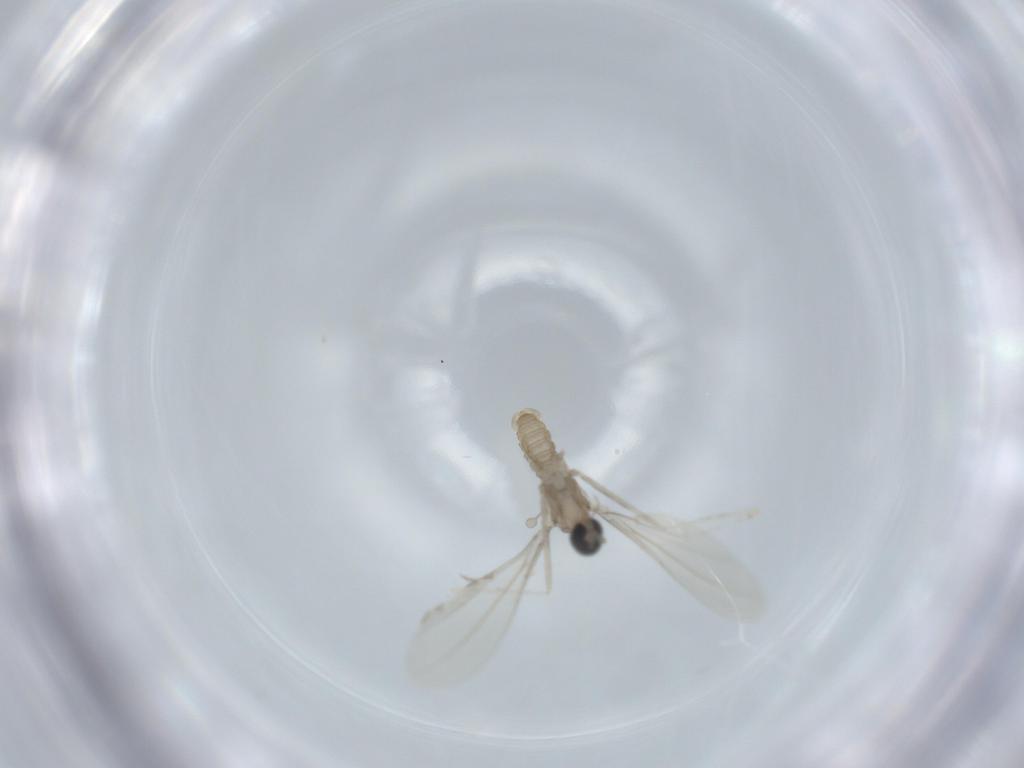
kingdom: Animalia
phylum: Arthropoda
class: Insecta
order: Diptera
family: Cecidomyiidae
